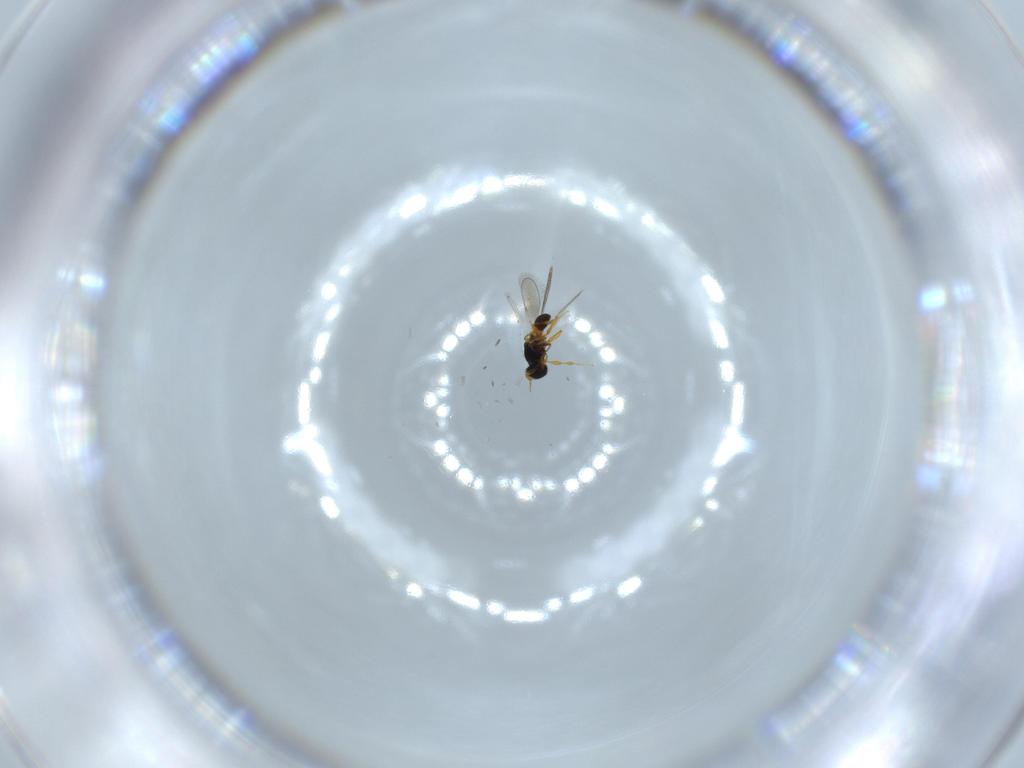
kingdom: Animalia
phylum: Arthropoda
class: Insecta
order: Hymenoptera
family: Platygastridae
